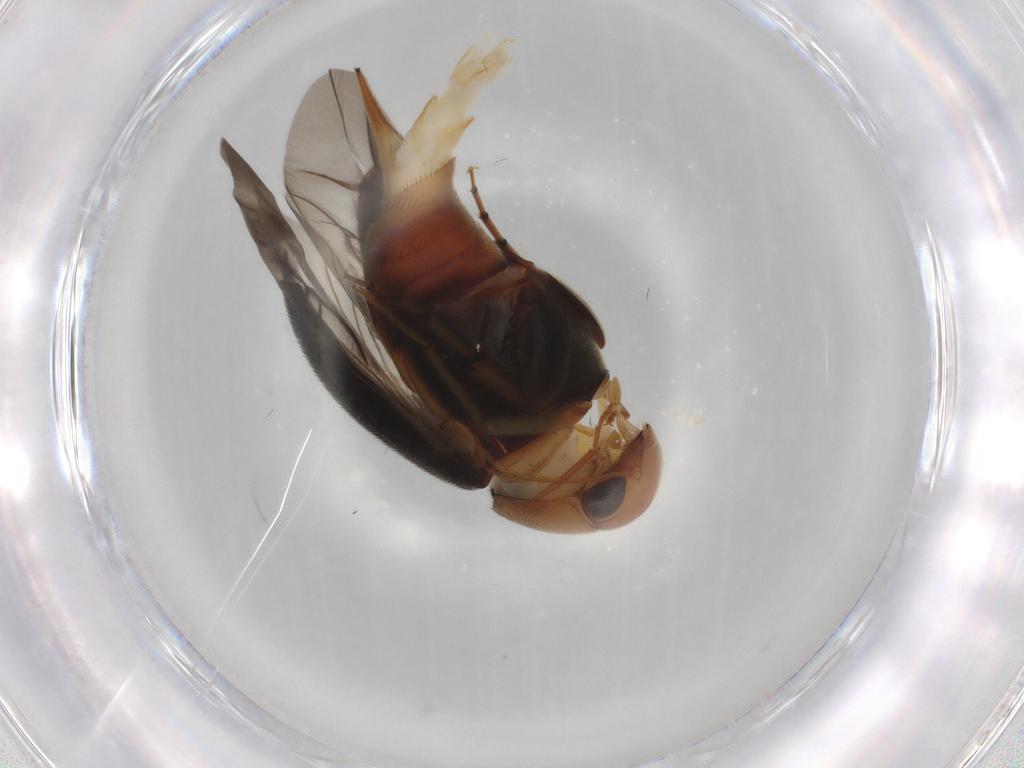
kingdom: Animalia
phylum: Arthropoda
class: Insecta
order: Coleoptera
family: Mordellidae
